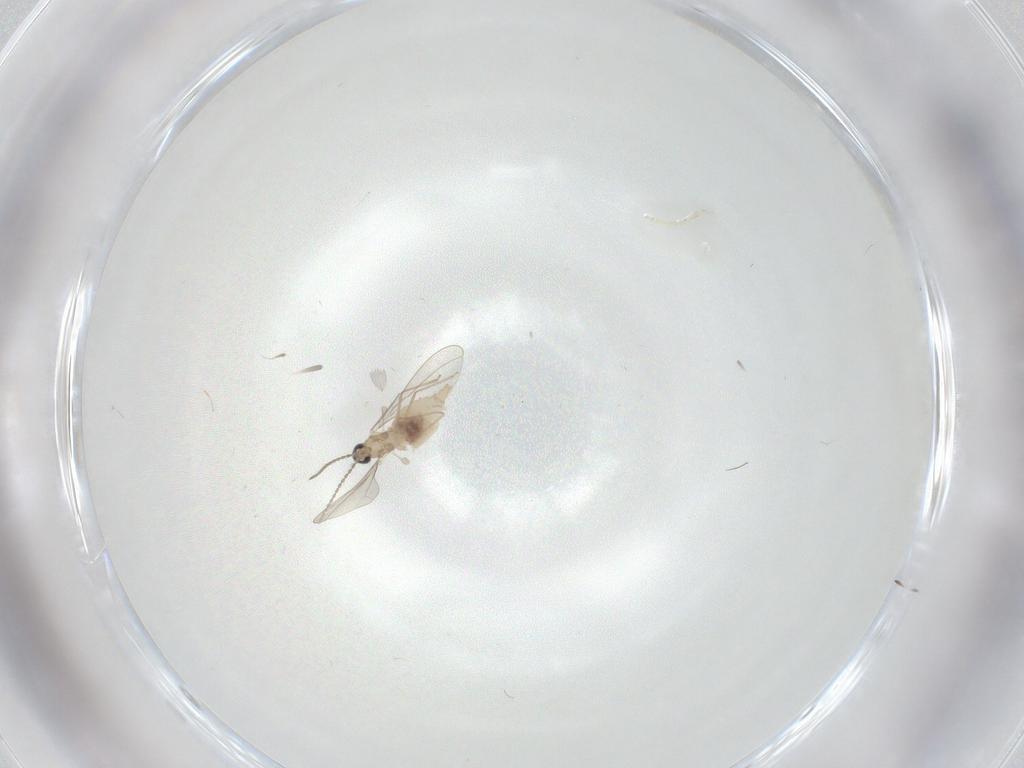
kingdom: Animalia
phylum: Arthropoda
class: Insecta
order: Diptera
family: Cecidomyiidae
